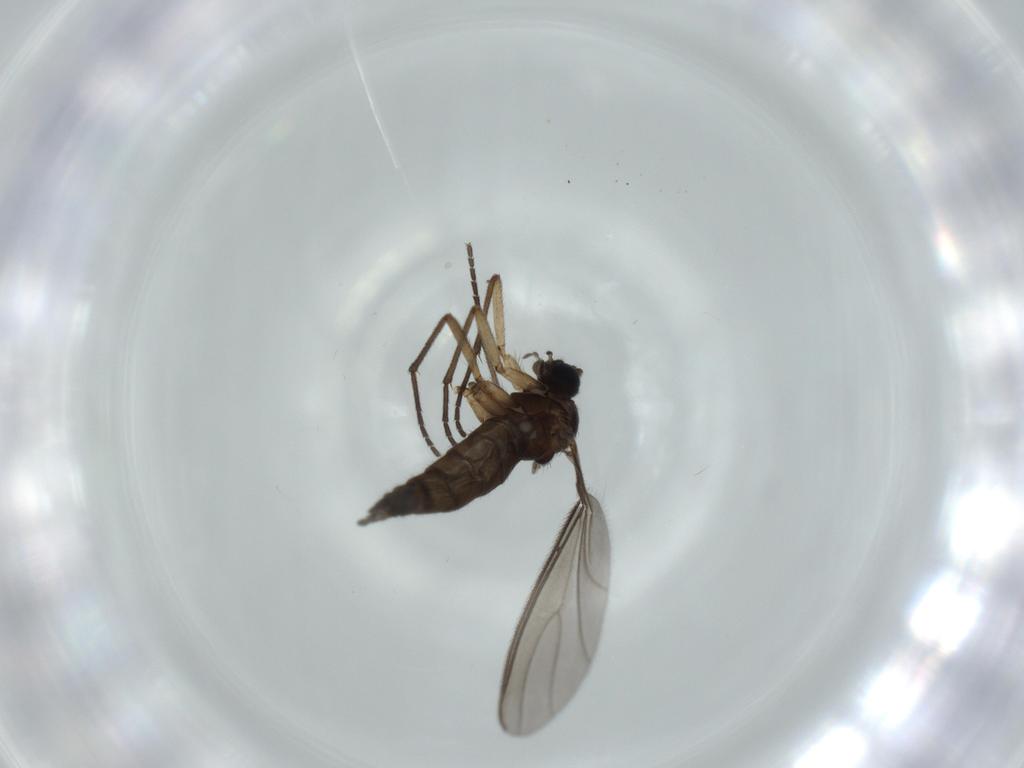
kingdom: Animalia
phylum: Arthropoda
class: Insecta
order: Diptera
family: Sciaridae
